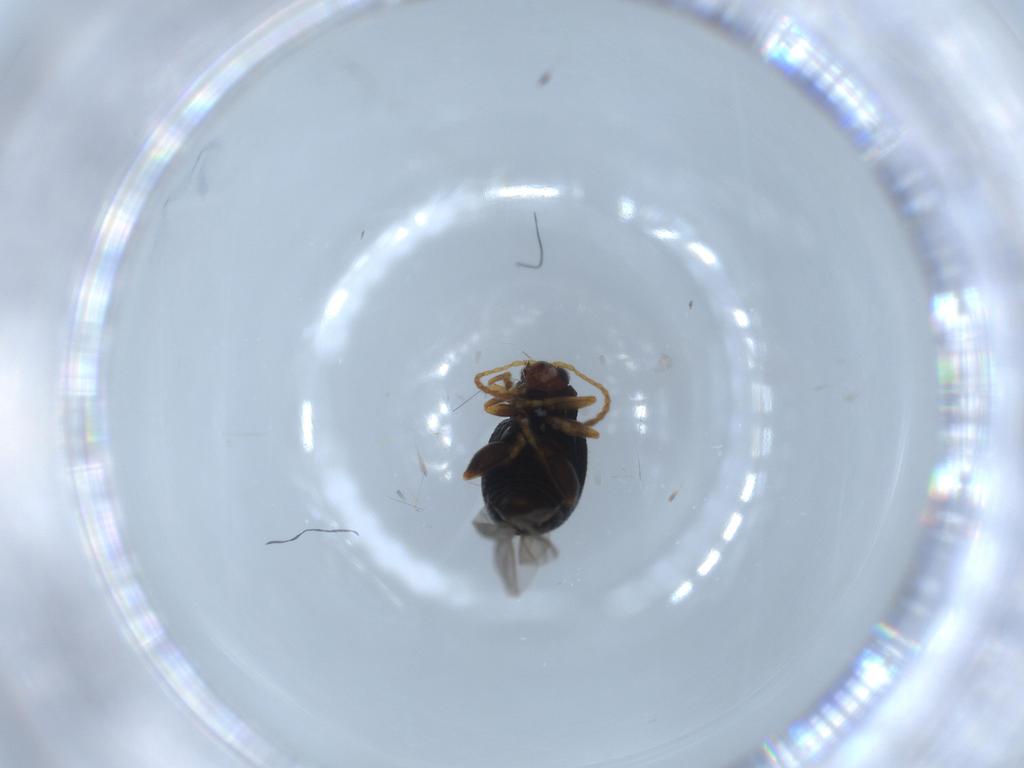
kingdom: Animalia
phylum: Arthropoda
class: Insecta
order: Coleoptera
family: Chrysomelidae
